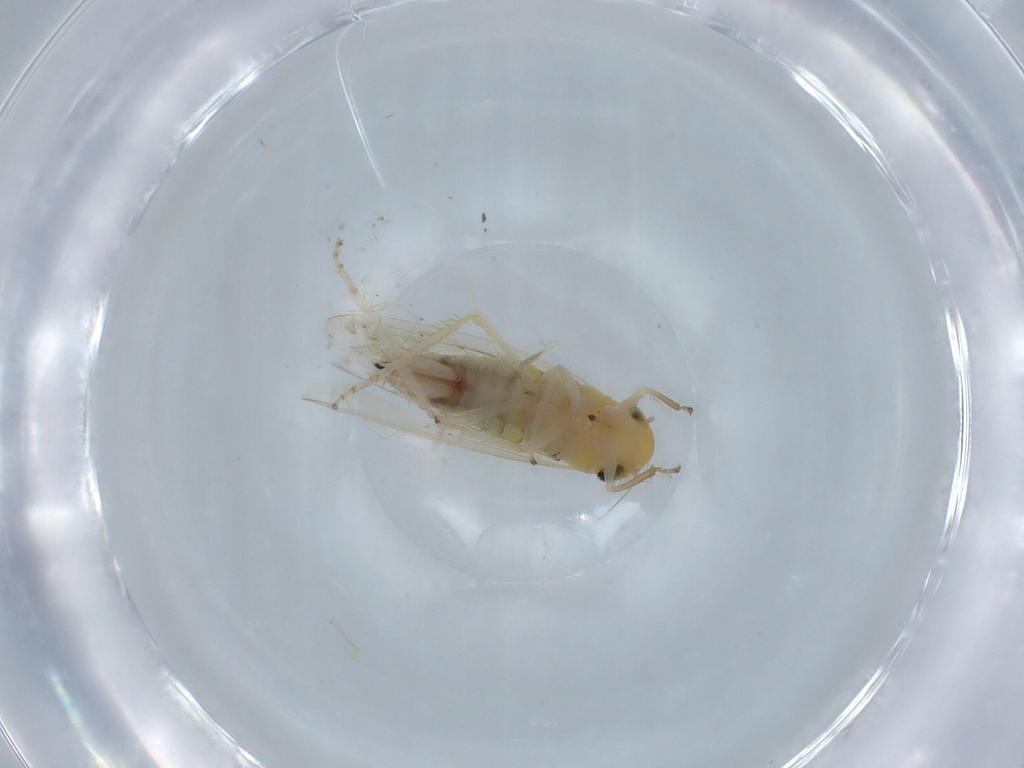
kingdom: Animalia
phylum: Arthropoda
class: Insecta
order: Hemiptera
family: Cicadellidae
